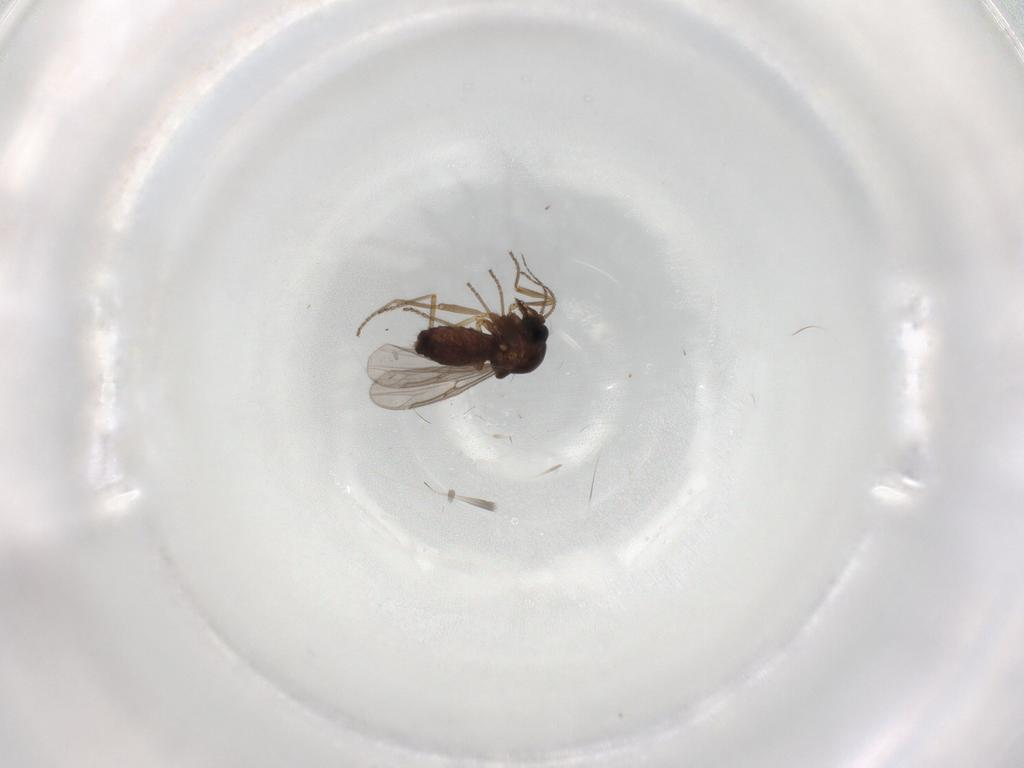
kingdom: Animalia
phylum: Arthropoda
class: Insecta
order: Diptera
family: Ceratopogonidae
